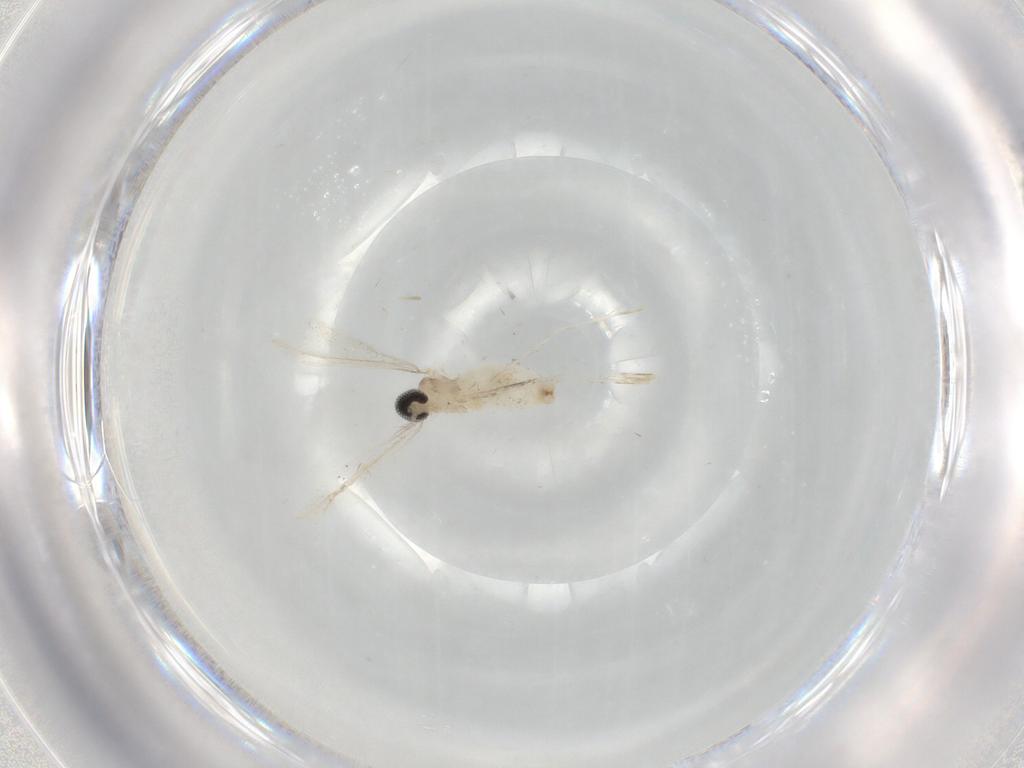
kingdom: Animalia
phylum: Arthropoda
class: Insecta
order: Diptera
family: Cecidomyiidae
